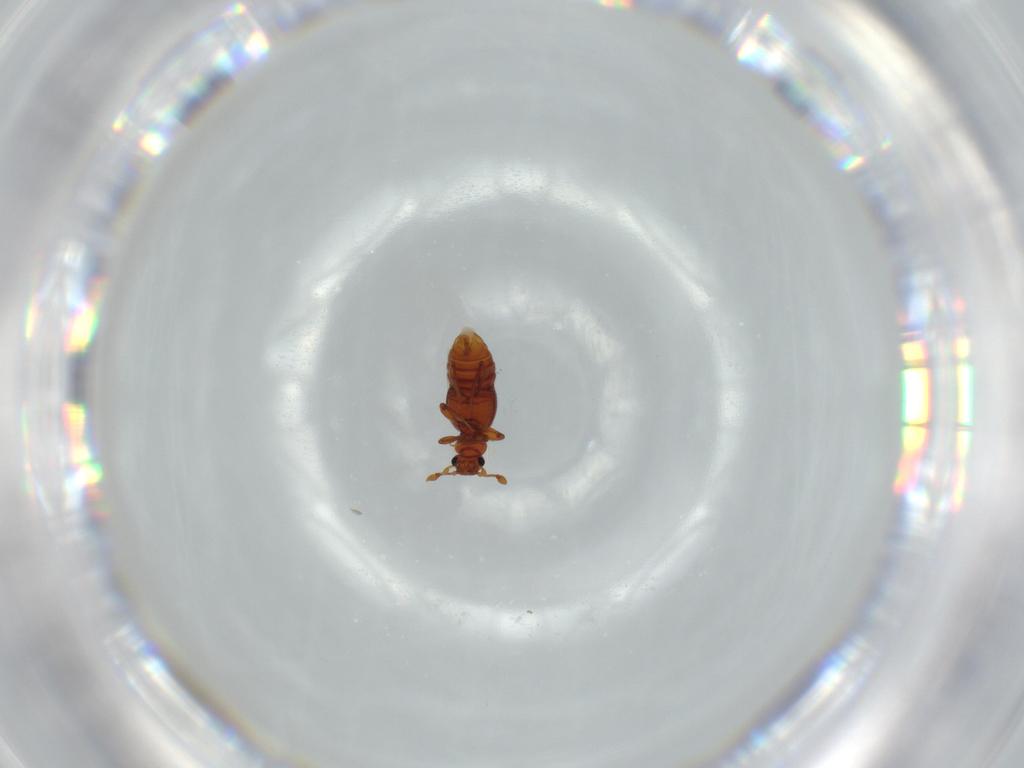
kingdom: Animalia
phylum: Arthropoda
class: Insecta
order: Coleoptera
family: Staphylinidae
